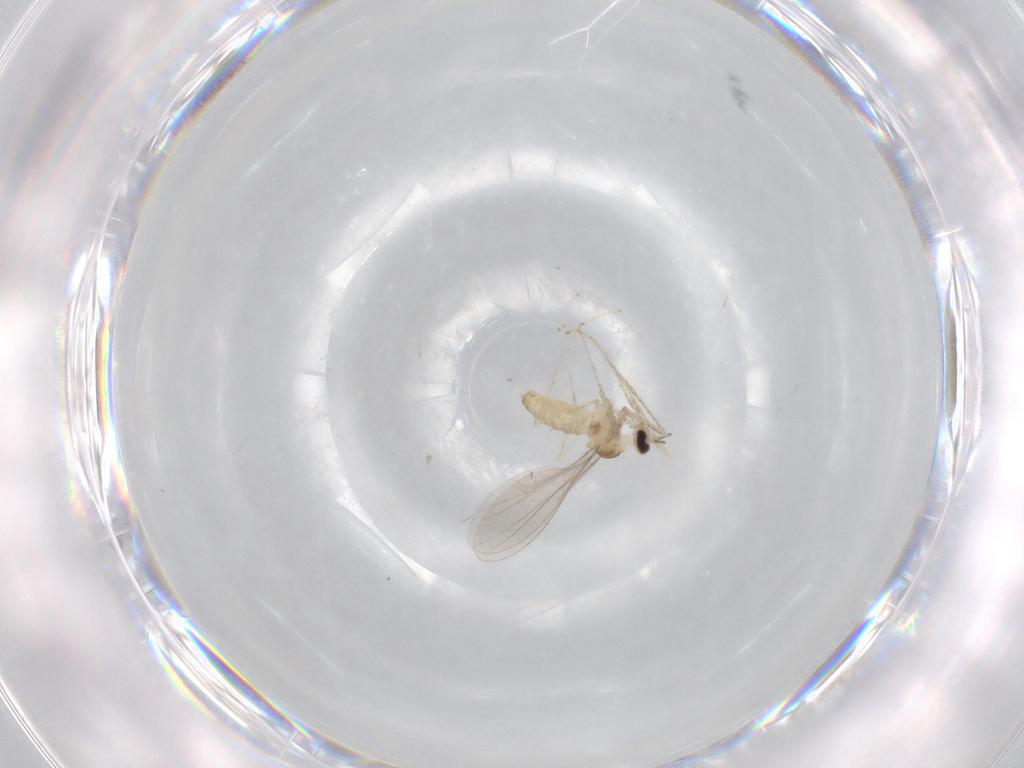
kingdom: Animalia
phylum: Arthropoda
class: Insecta
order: Diptera
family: Cecidomyiidae
